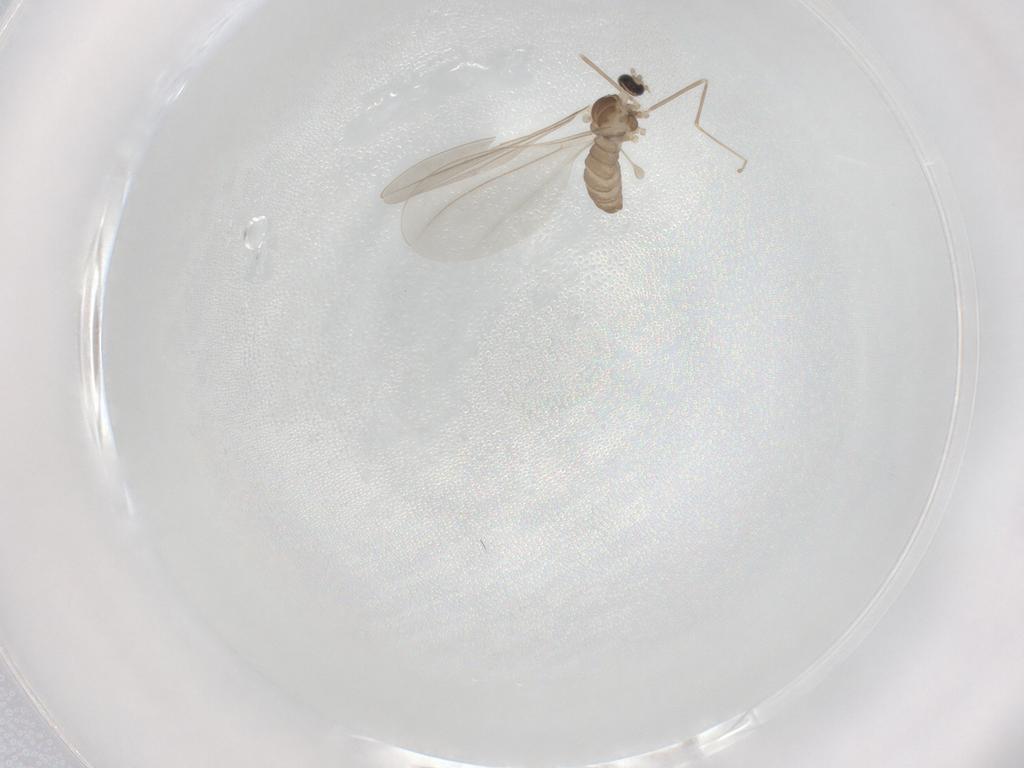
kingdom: Animalia
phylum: Arthropoda
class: Insecta
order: Diptera
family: Cecidomyiidae
